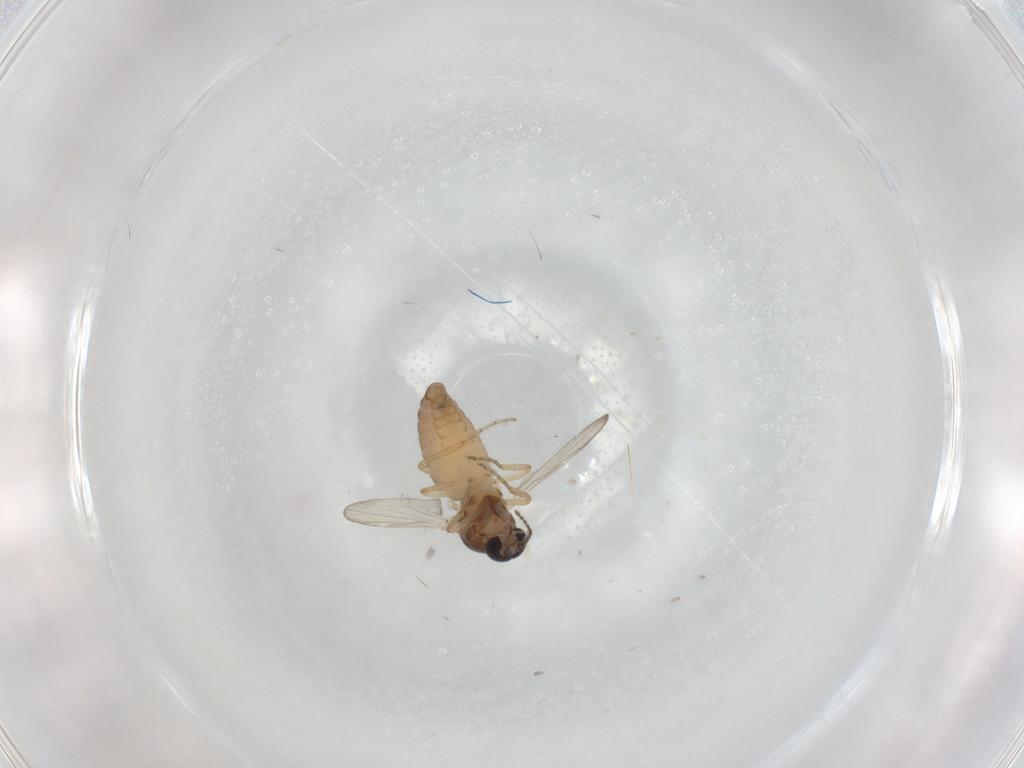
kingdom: Animalia
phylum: Arthropoda
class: Insecta
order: Diptera
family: Ceratopogonidae
